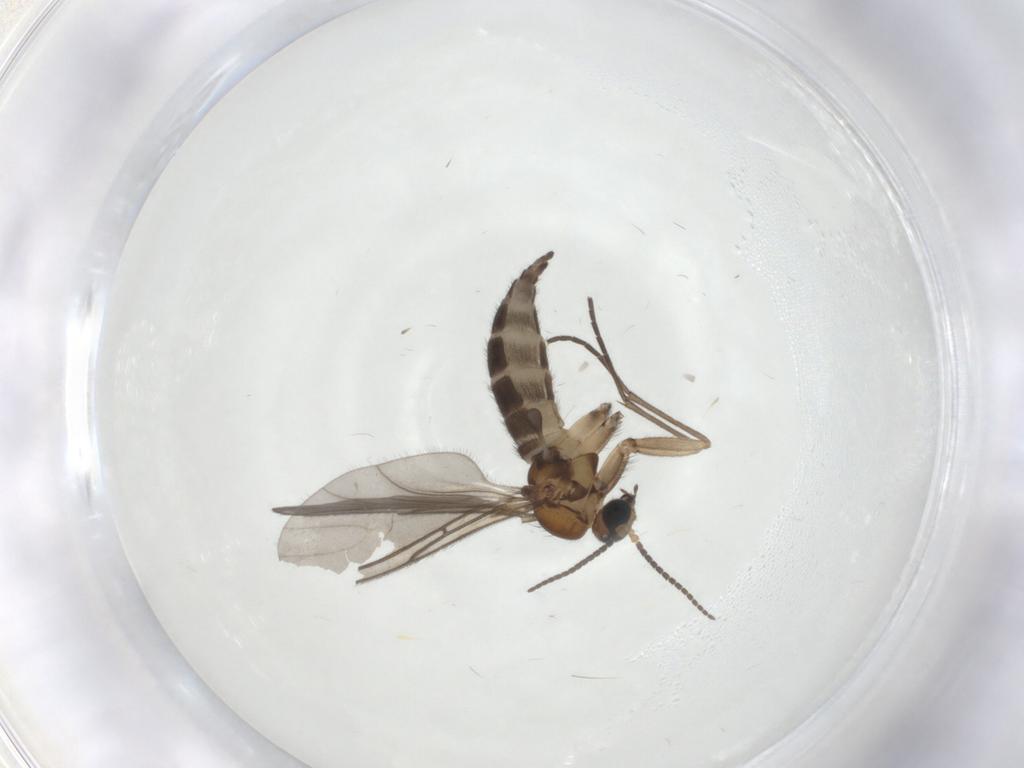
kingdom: Animalia
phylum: Arthropoda
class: Insecta
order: Diptera
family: Sciaridae
